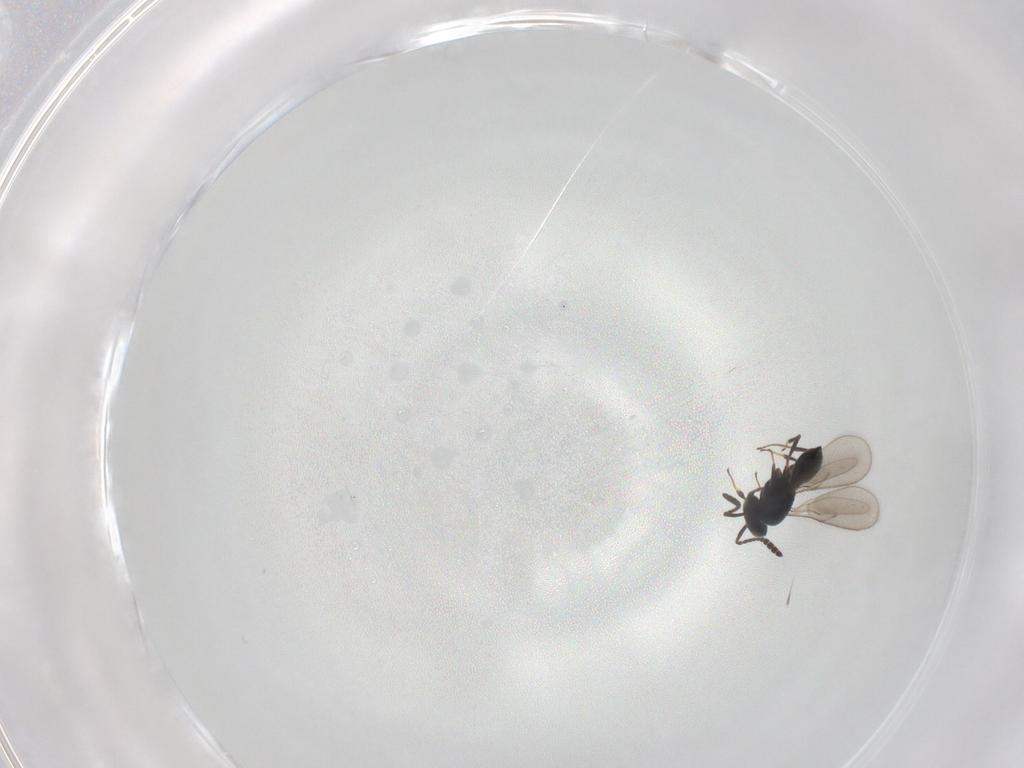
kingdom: Animalia
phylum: Arthropoda
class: Insecta
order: Hymenoptera
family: Scelionidae
